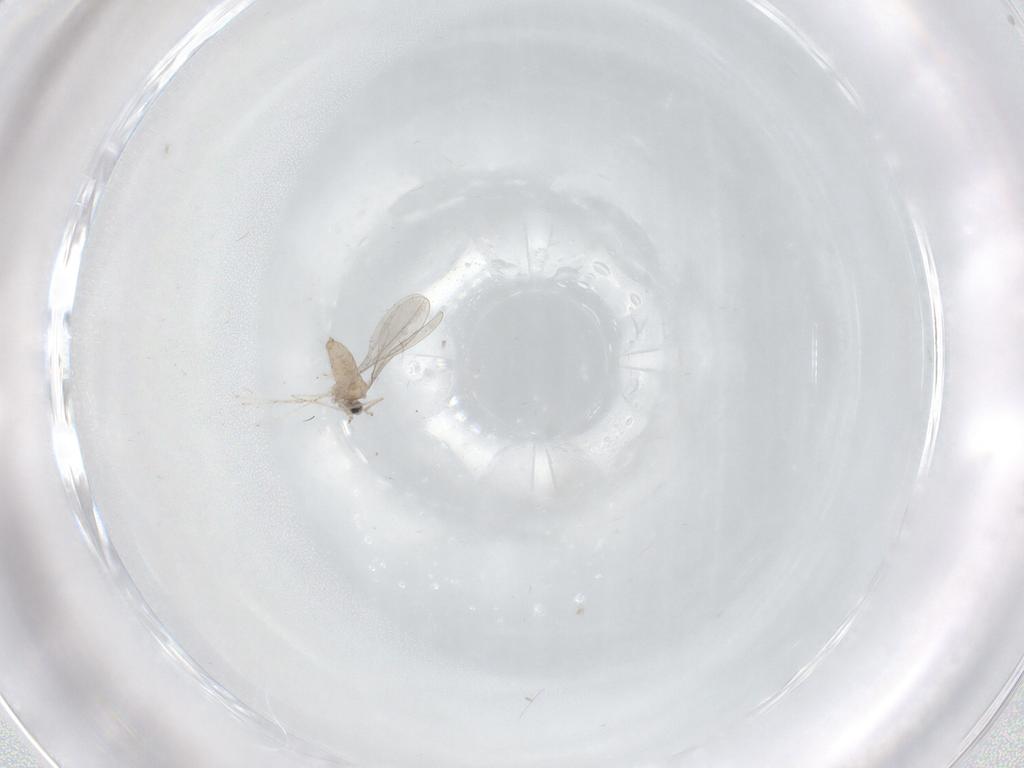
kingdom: Animalia
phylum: Arthropoda
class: Insecta
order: Diptera
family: Cecidomyiidae
